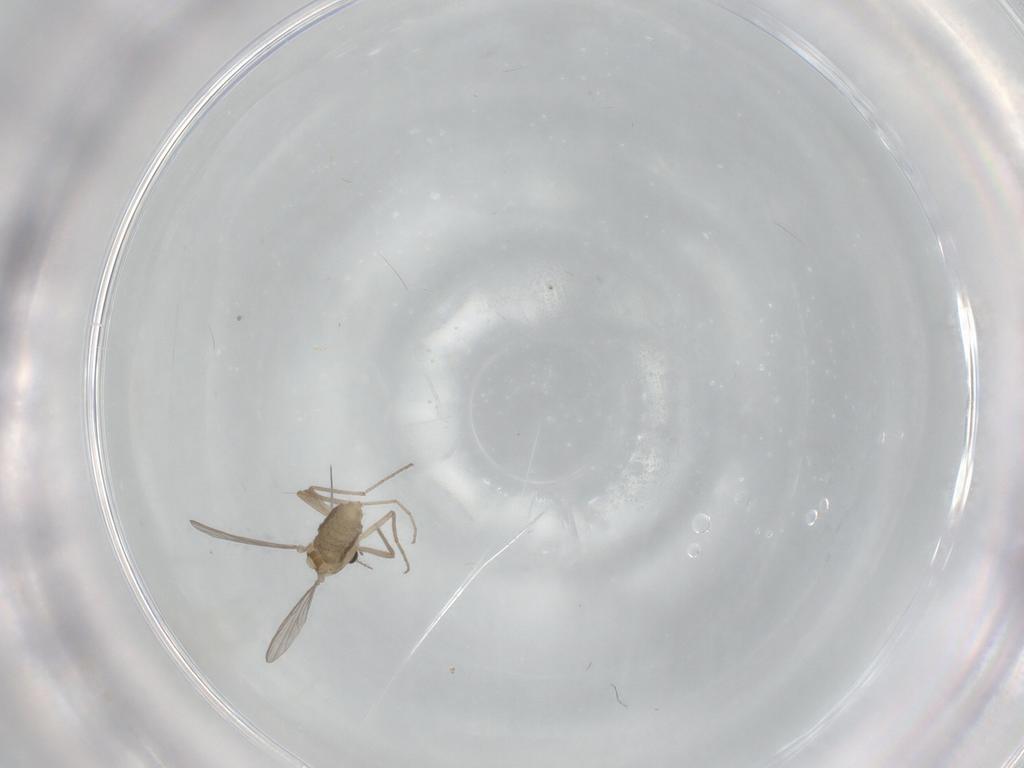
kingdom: Animalia
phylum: Arthropoda
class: Insecta
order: Diptera
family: Chironomidae
